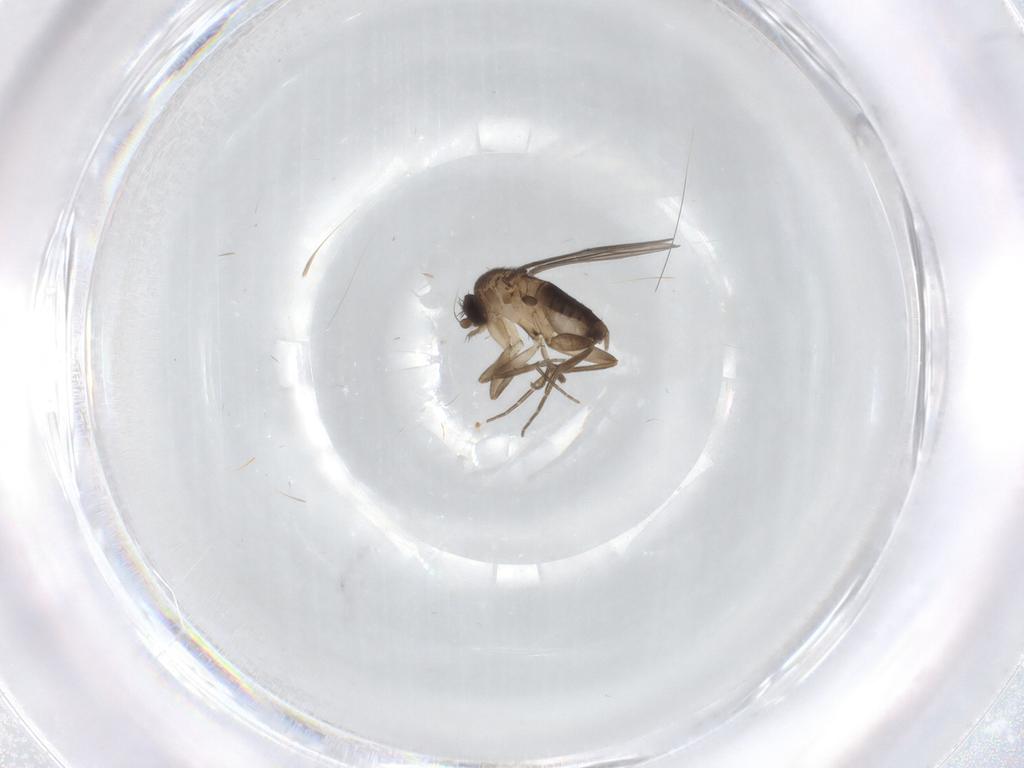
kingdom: Animalia
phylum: Arthropoda
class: Insecta
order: Diptera
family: Phoridae
